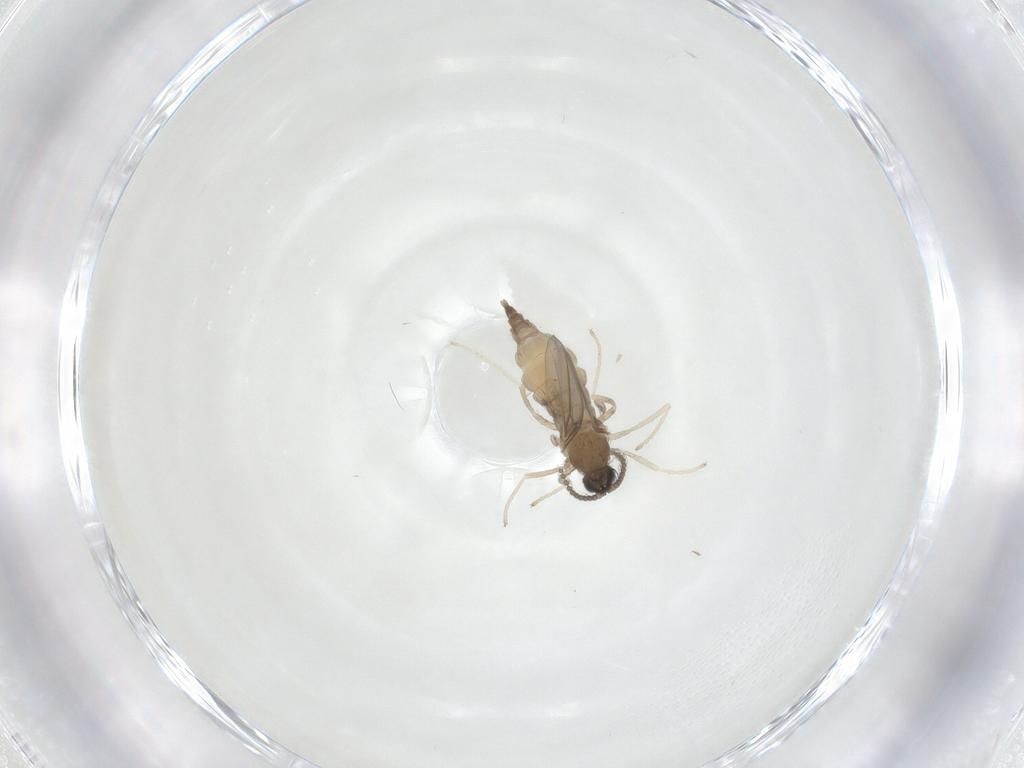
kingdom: Animalia
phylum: Arthropoda
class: Insecta
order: Diptera
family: Cecidomyiidae
